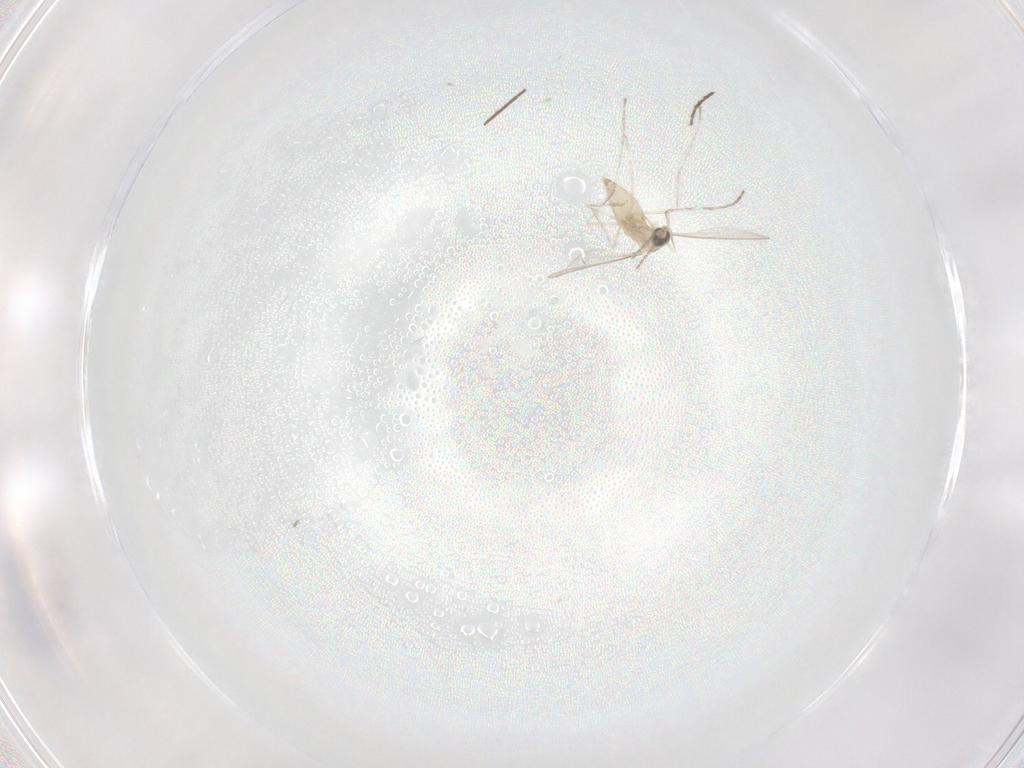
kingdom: Animalia
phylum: Arthropoda
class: Insecta
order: Diptera
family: Cecidomyiidae
